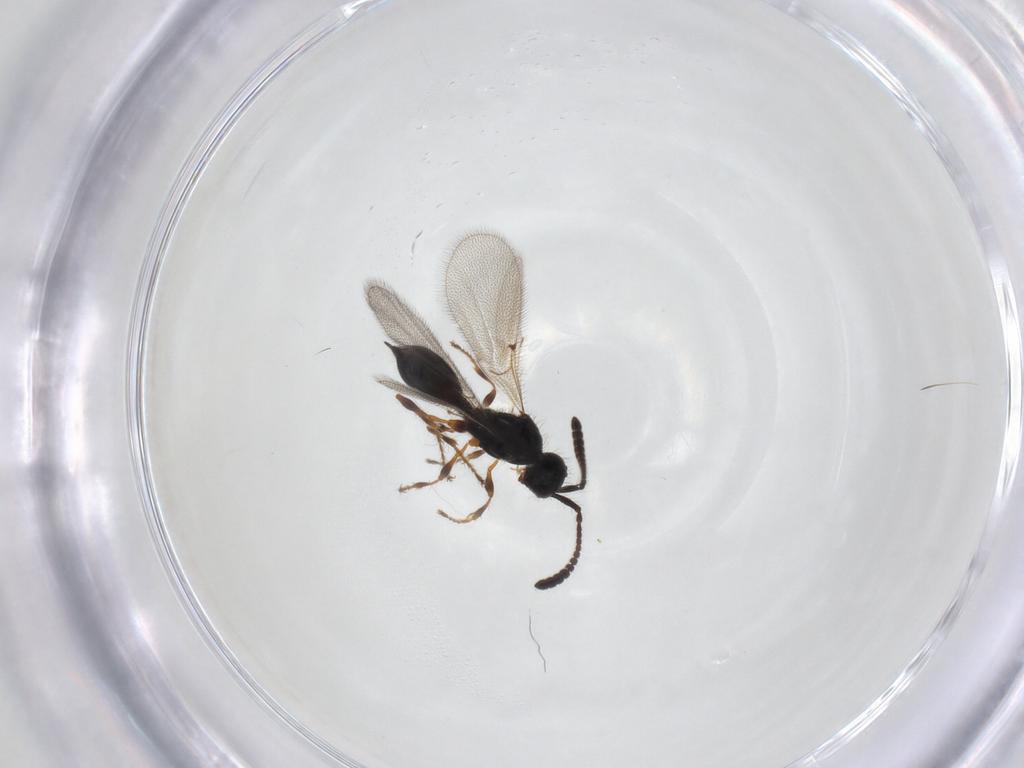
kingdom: Animalia
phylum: Arthropoda
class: Insecta
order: Hymenoptera
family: Diapriidae
